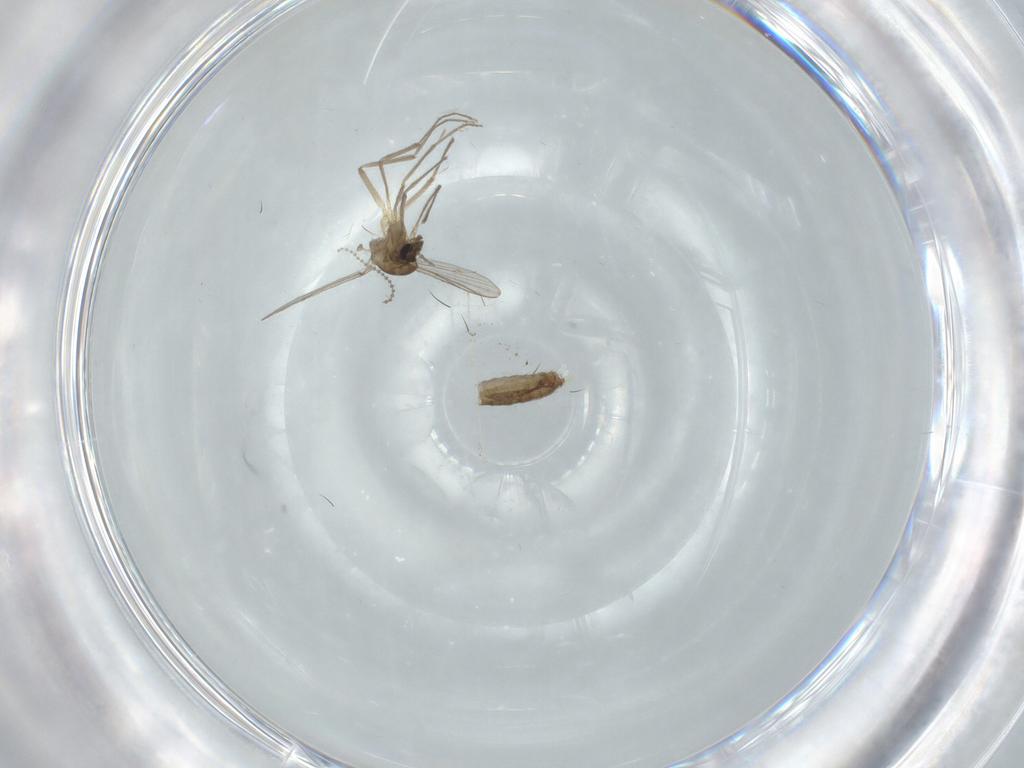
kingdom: Animalia
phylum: Arthropoda
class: Insecta
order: Diptera
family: Chironomidae
